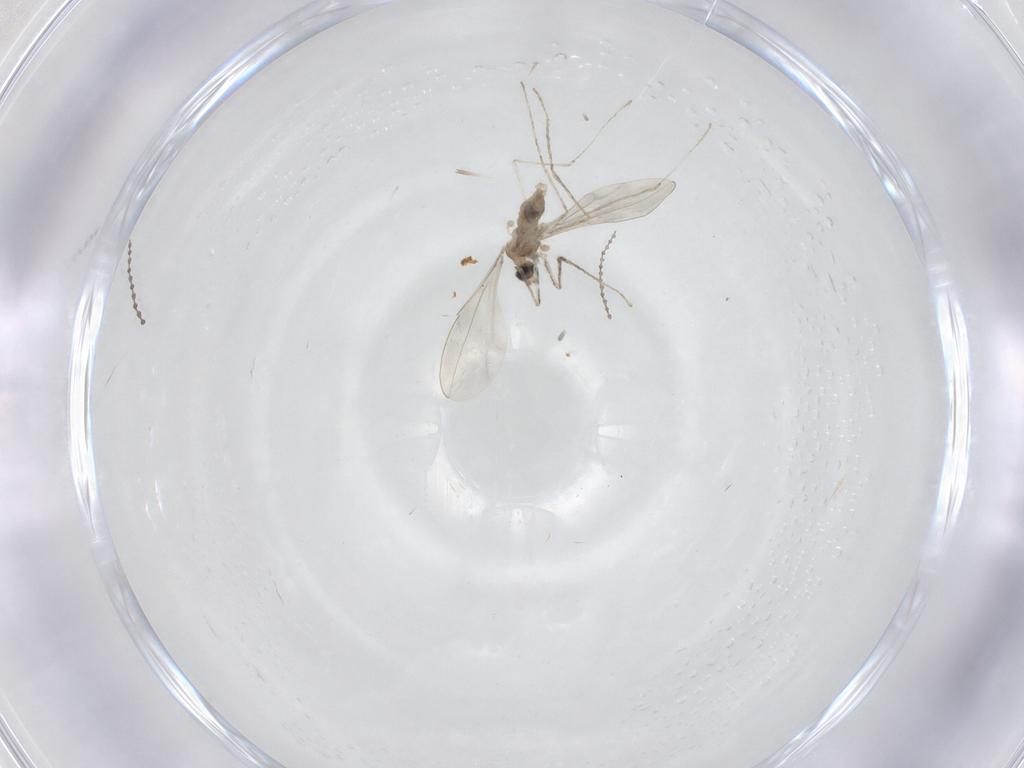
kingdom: Animalia
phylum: Arthropoda
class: Insecta
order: Diptera
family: Cecidomyiidae
